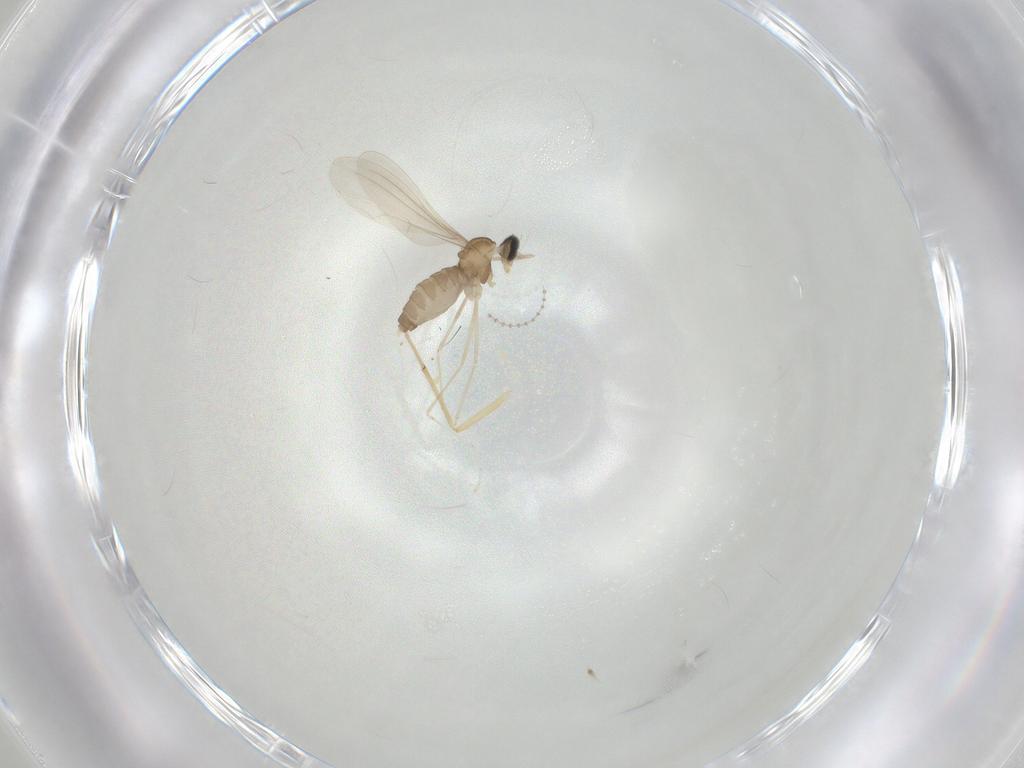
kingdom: Animalia
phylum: Arthropoda
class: Insecta
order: Diptera
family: Cecidomyiidae
